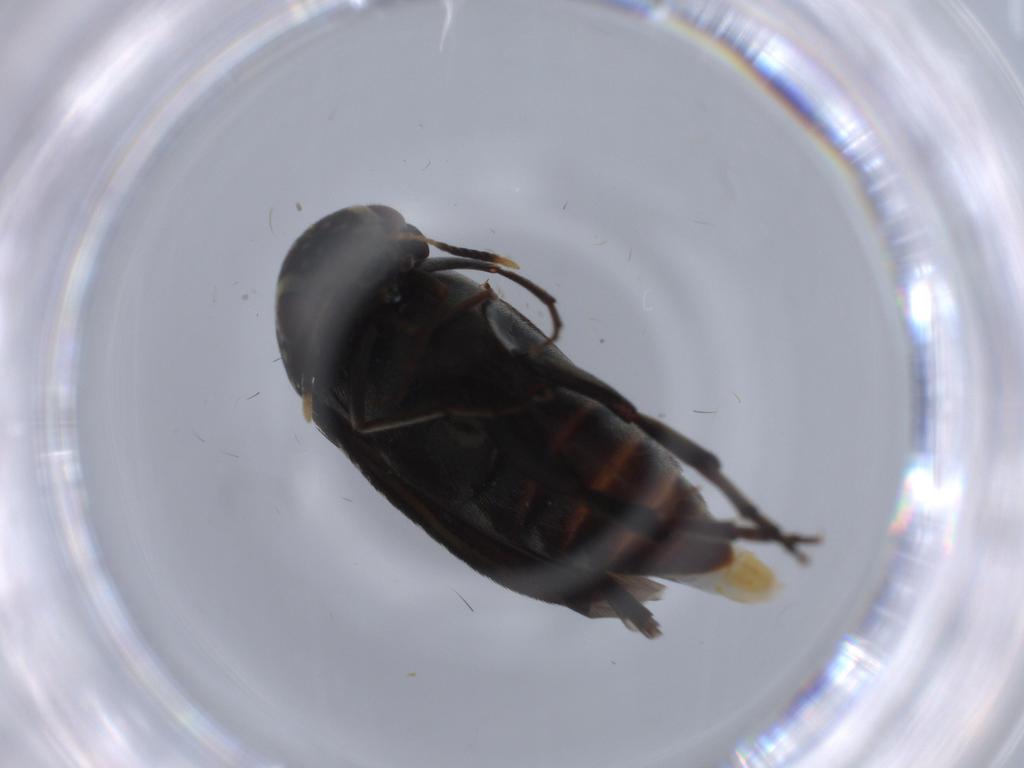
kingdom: Animalia
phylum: Arthropoda
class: Insecta
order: Coleoptera
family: Mordellidae
